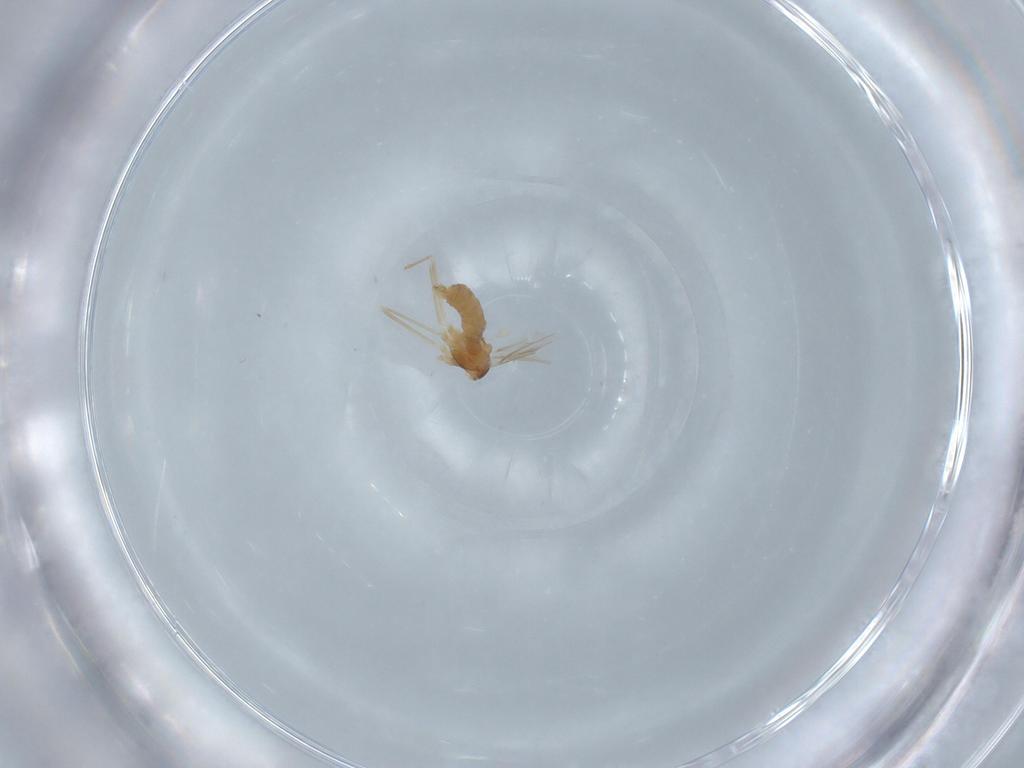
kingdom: Animalia
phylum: Arthropoda
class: Insecta
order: Diptera
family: Cecidomyiidae
